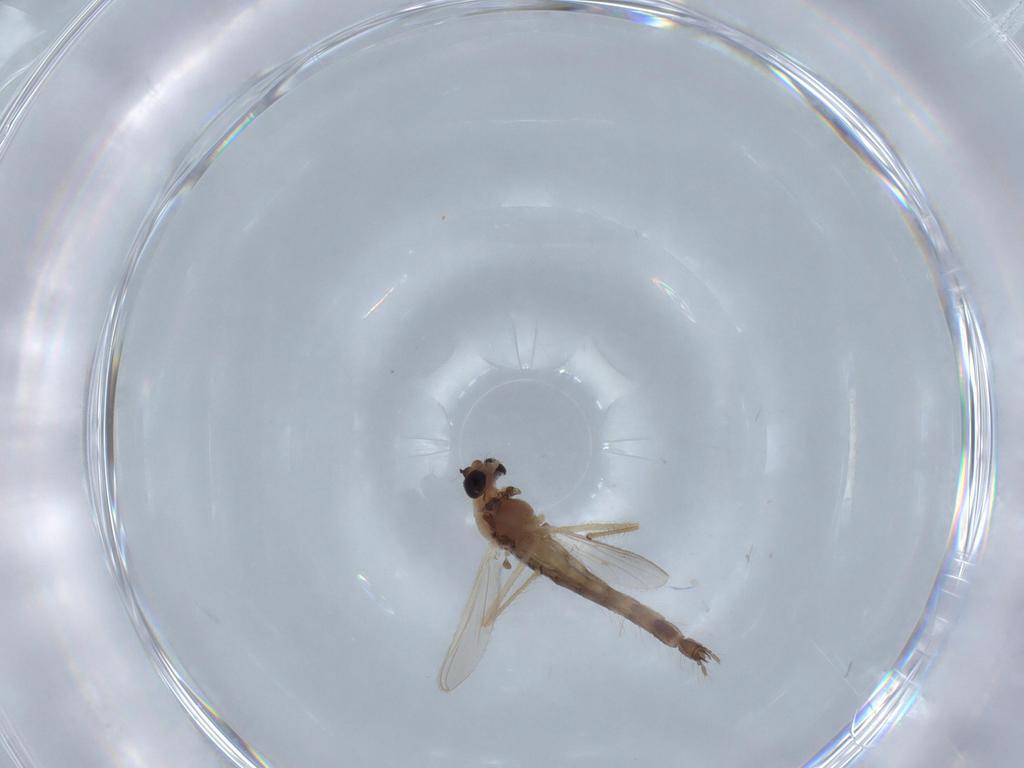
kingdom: Animalia
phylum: Arthropoda
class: Insecta
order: Diptera
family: Chironomidae
